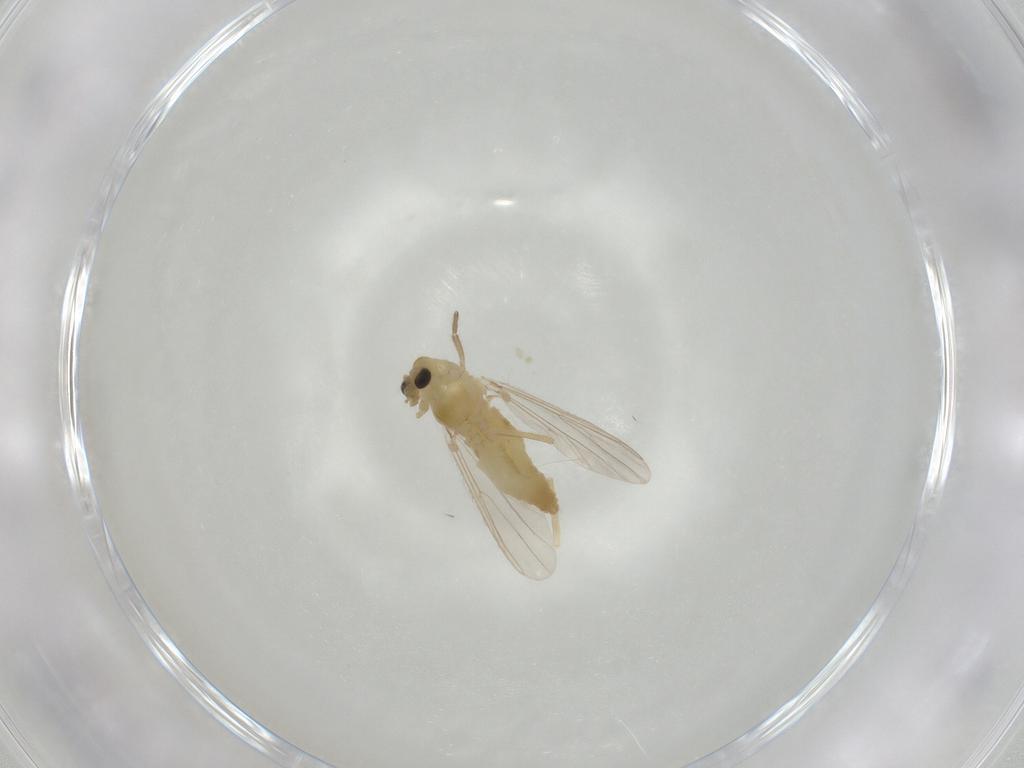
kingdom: Animalia
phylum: Arthropoda
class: Insecta
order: Diptera
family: Chironomidae
